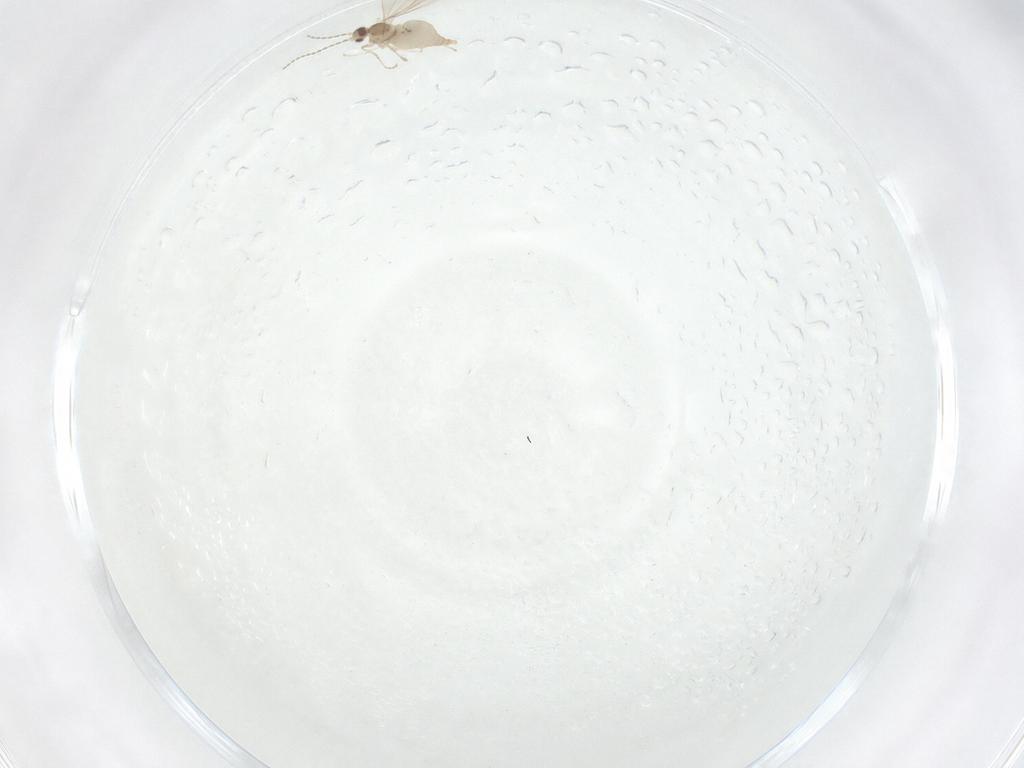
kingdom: Animalia
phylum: Arthropoda
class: Insecta
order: Diptera
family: Cecidomyiidae
